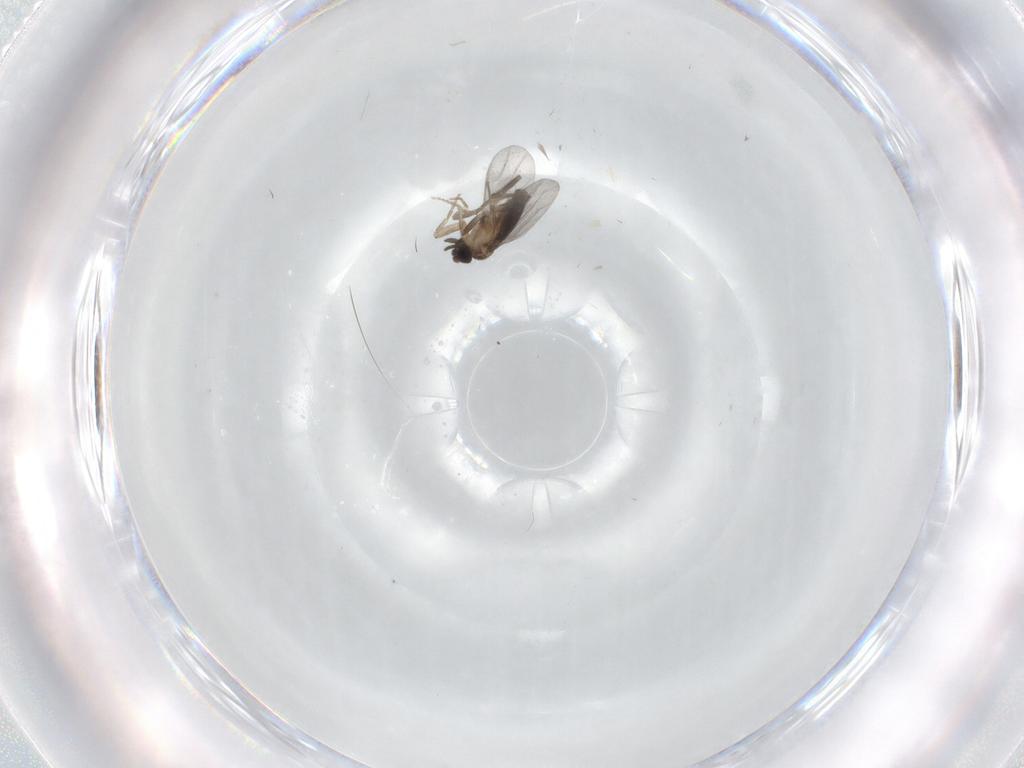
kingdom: Animalia
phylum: Arthropoda
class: Insecta
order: Diptera
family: Cecidomyiidae
